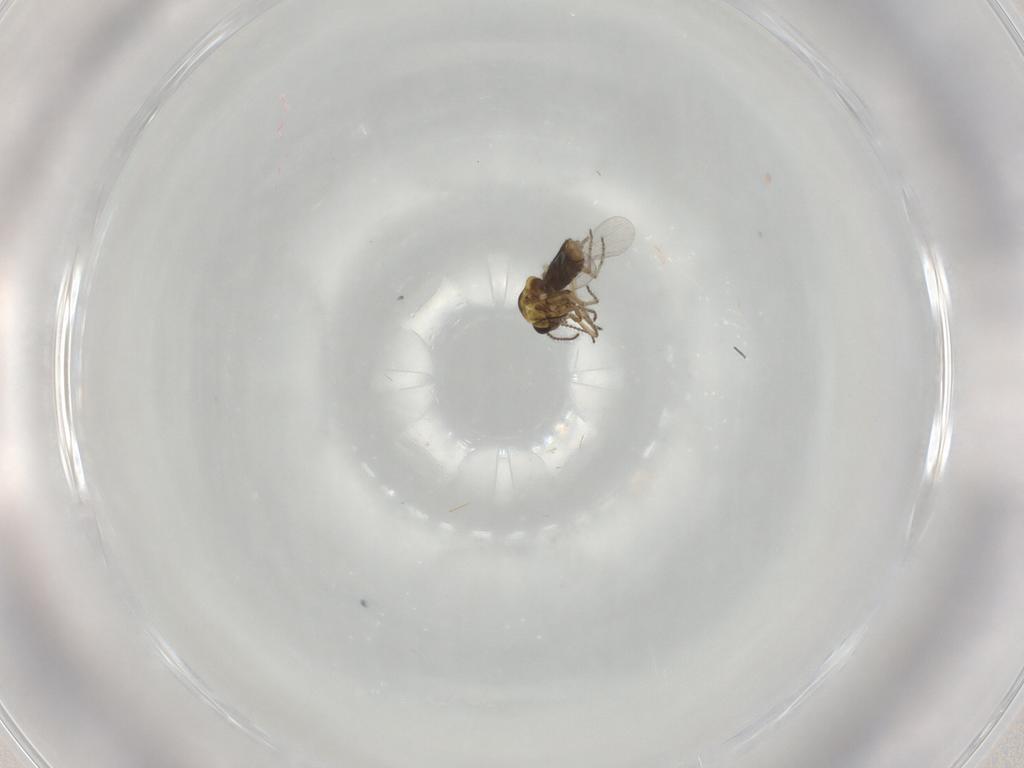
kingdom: Animalia
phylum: Arthropoda
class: Insecta
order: Diptera
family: Ceratopogonidae
